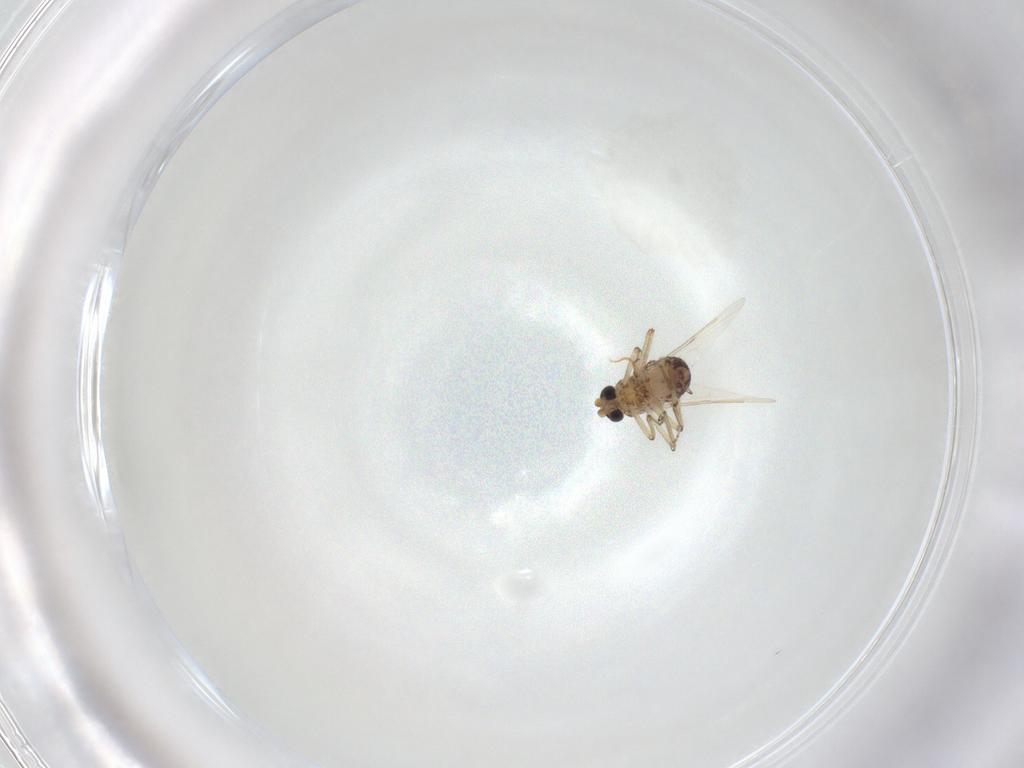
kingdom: Animalia
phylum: Arthropoda
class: Insecta
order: Diptera
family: Ceratopogonidae
